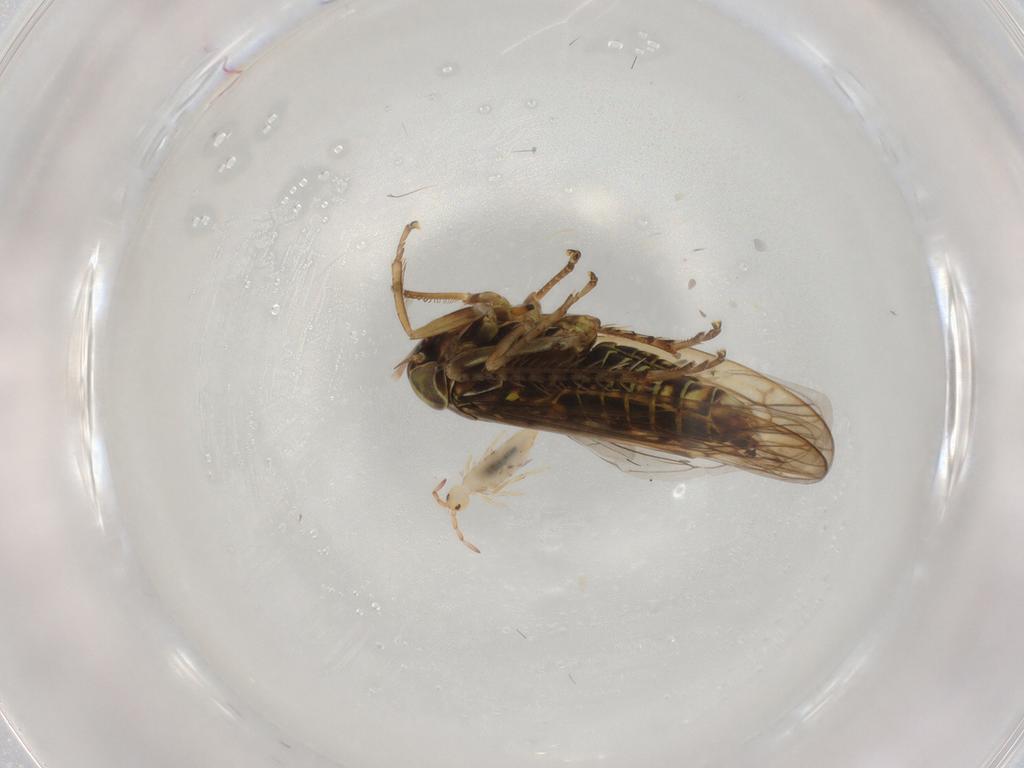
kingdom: Animalia
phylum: Arthropoda
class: Insecta
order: Hemiptera
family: Cicadellidae
